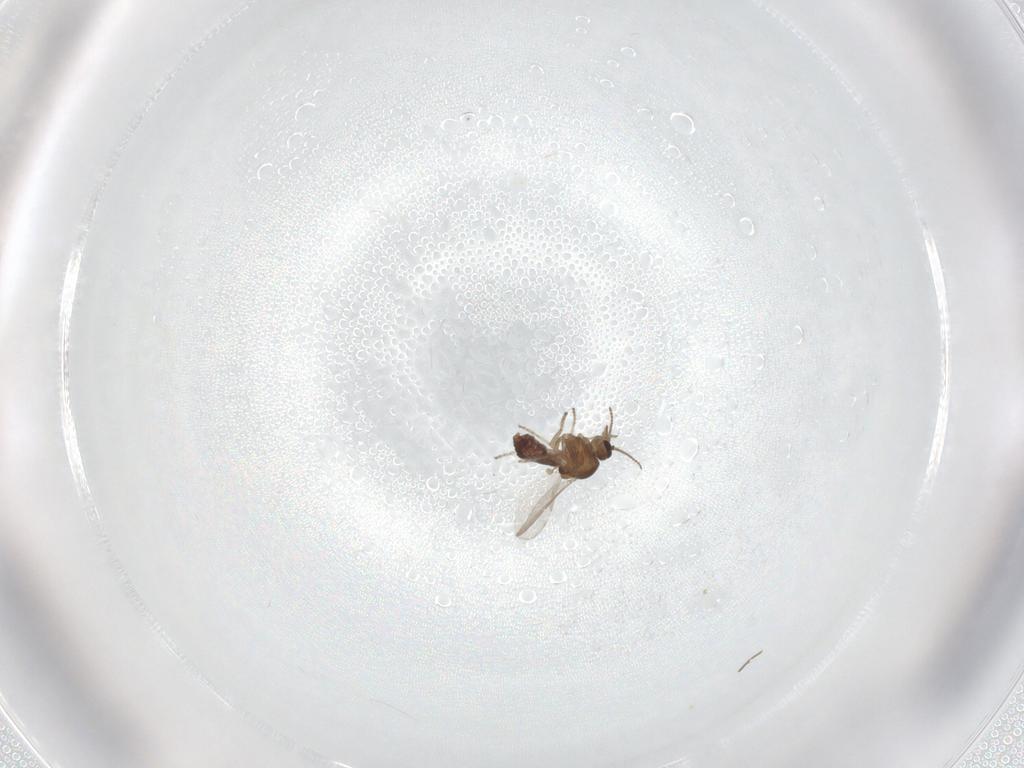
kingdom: Animalia
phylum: Arthropoda
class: Insecta
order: Diptera
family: Ceratopogonidae
